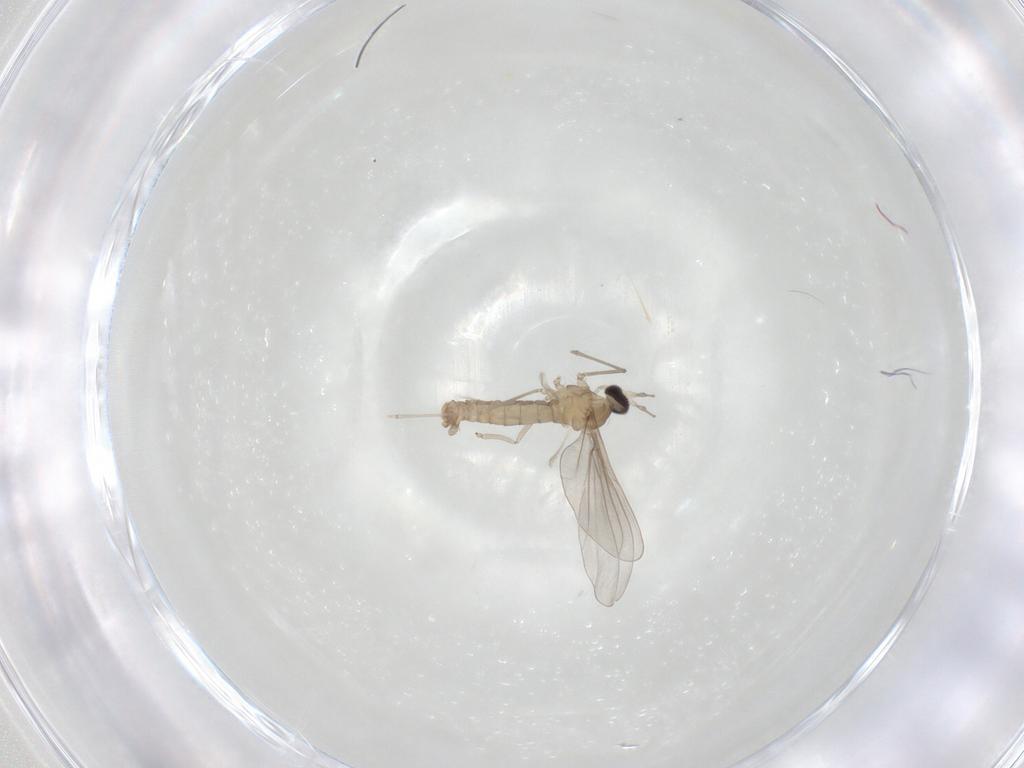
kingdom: Animalia
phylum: Arthropoda
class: Insecta
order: Diptera
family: Cecidomyiidae
